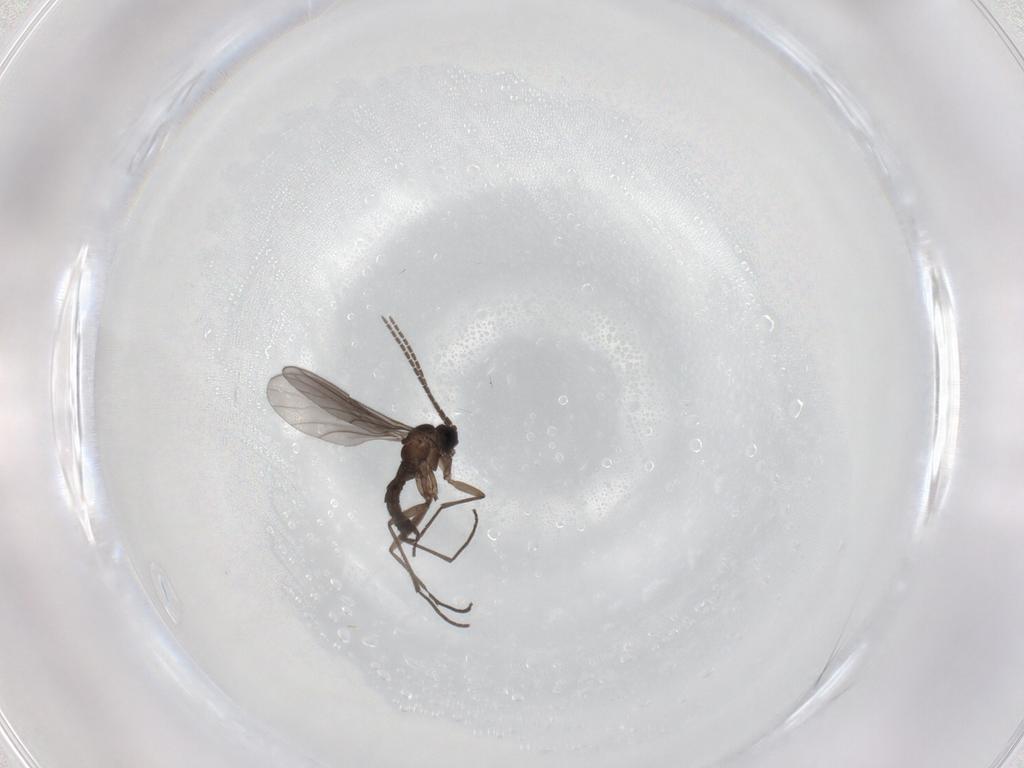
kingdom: Animalia
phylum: Arthropoda
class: Insecta
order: Diptera
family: Sciaridae
